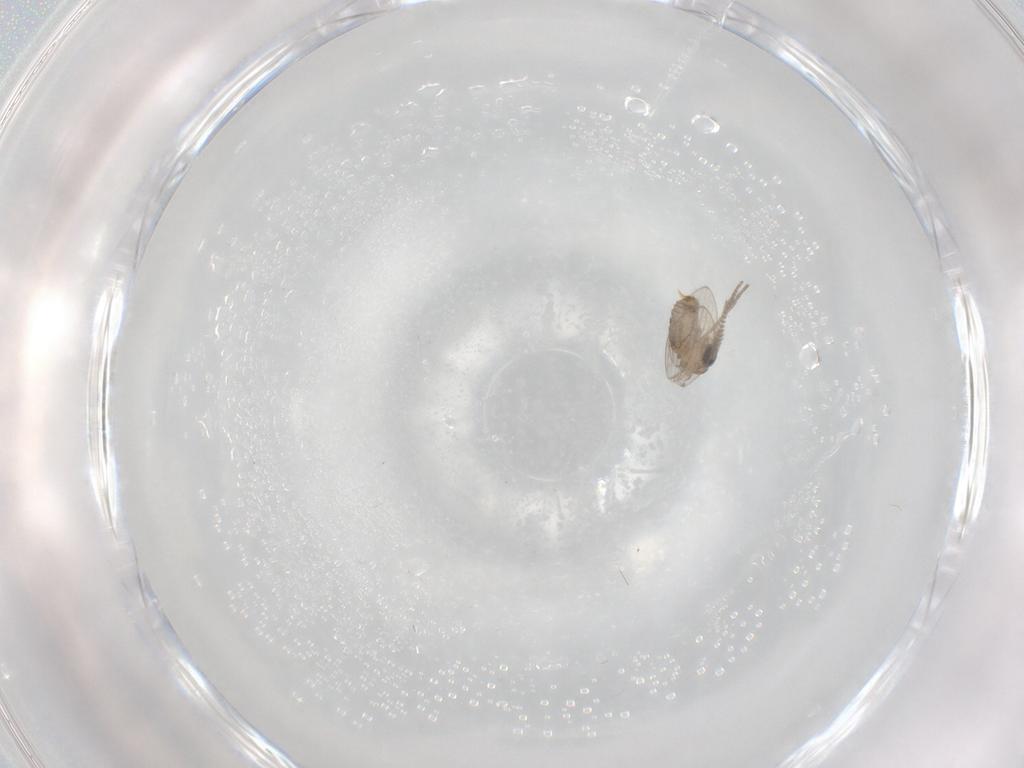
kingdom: Animalia
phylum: Arthropoda
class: Insecta
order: Diptera
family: Psychodidae
